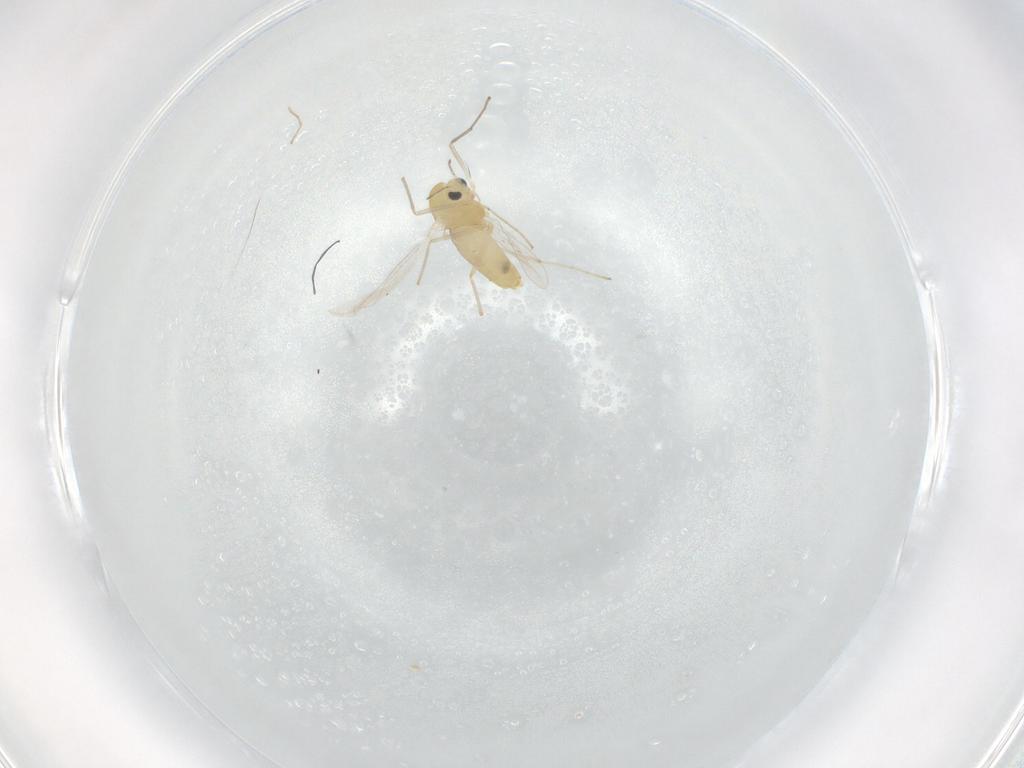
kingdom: Animalia
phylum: Arthropoda
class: Insecta
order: Diptera
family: Chironomidae
